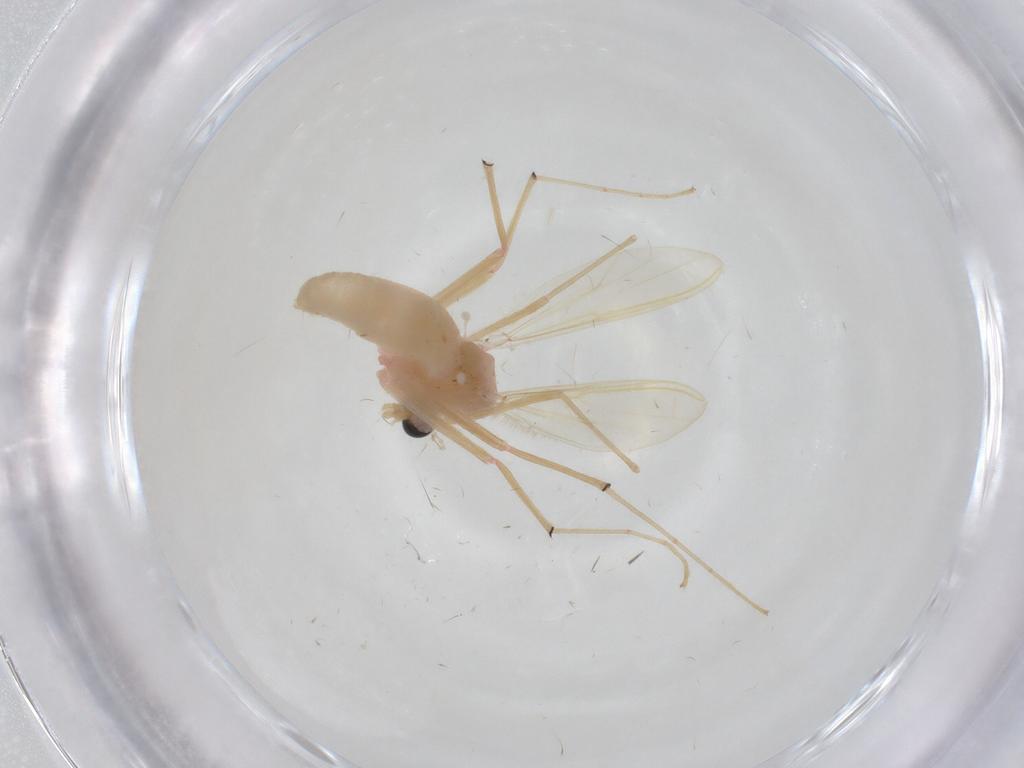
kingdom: Animalia
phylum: Arthropoda
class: Insecta
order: Diptera
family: Chironomidae
